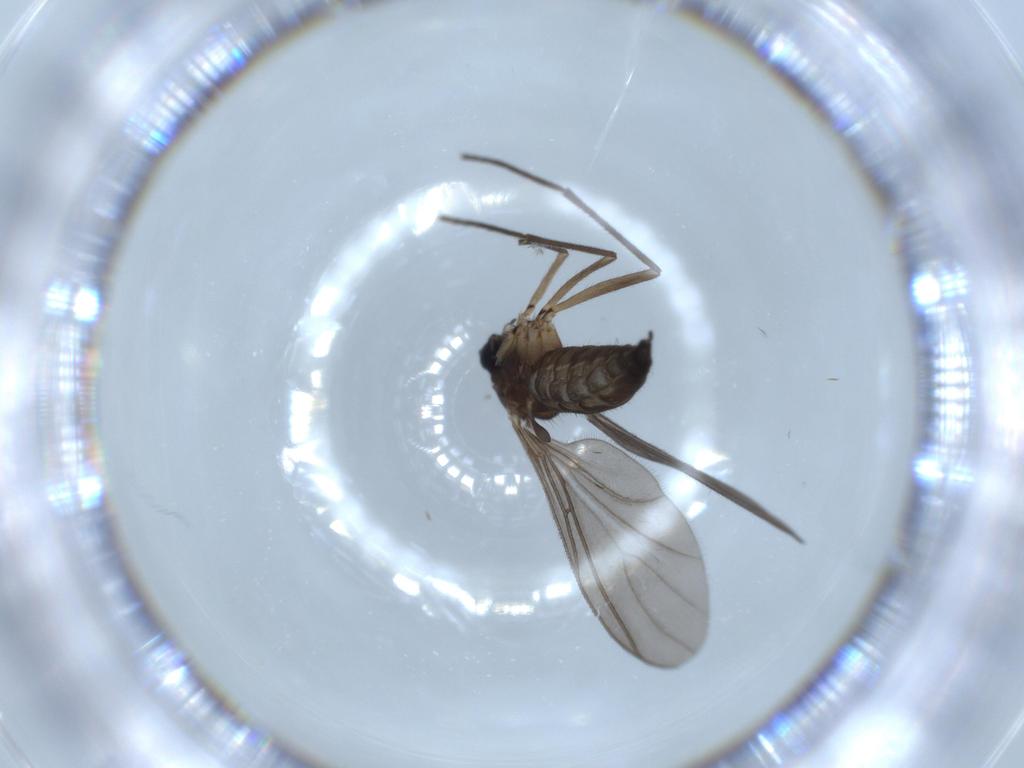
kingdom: Animalia
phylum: Arthropoda
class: Insecta
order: Diptera
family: Sciaridae
